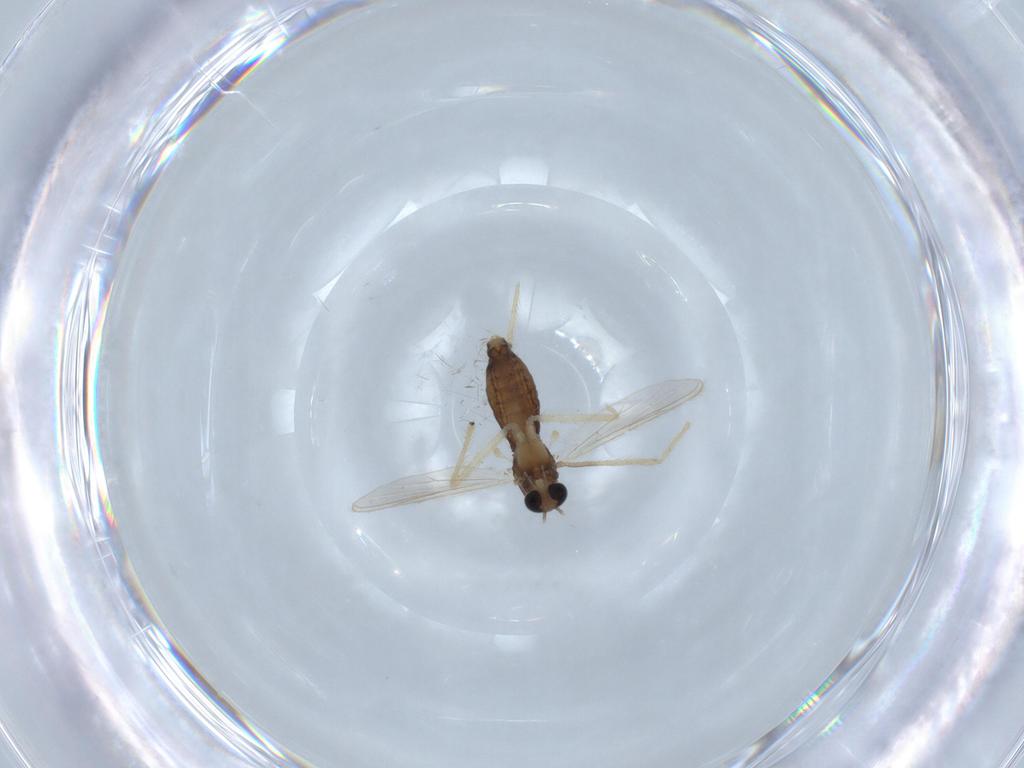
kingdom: Animalia
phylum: Arthropoda
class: Insecta
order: Diptera
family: Chironomidae
